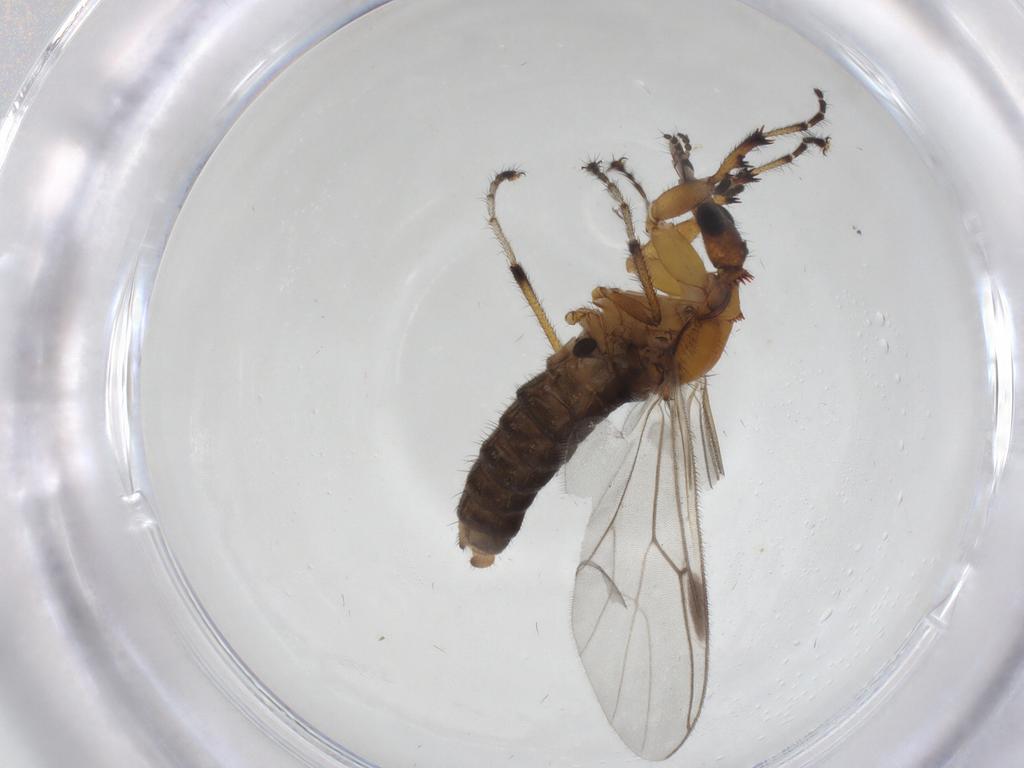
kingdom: Animalia
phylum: Arthropoda
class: Insecta
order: Diptera
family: Bibionidae
